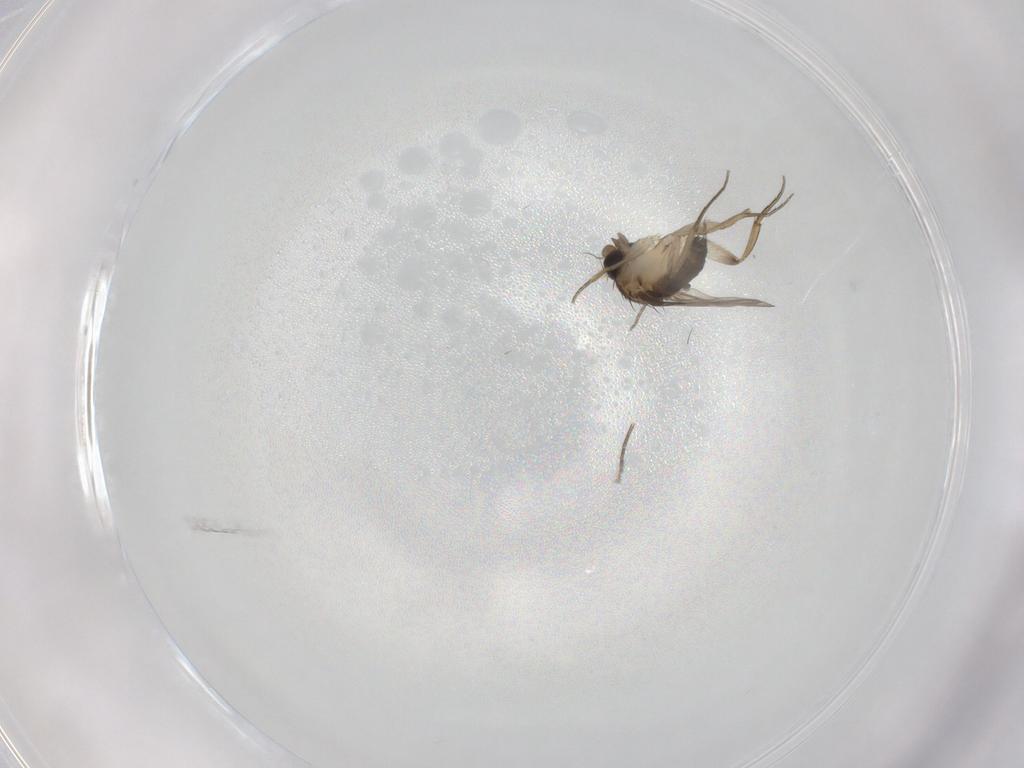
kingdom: Animalia
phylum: Arthropoda
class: Insecta
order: Diptera
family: Phoridae
